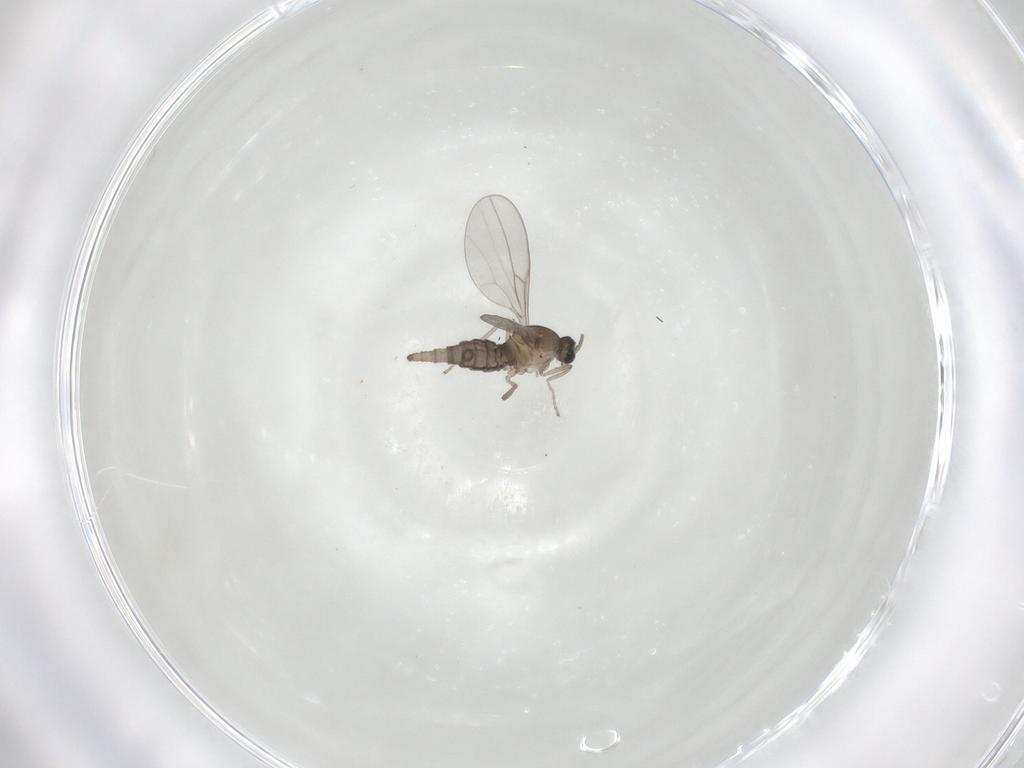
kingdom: Animalia
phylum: Arthropoda
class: Insecta
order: Diptera
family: Cecidomyiidae
